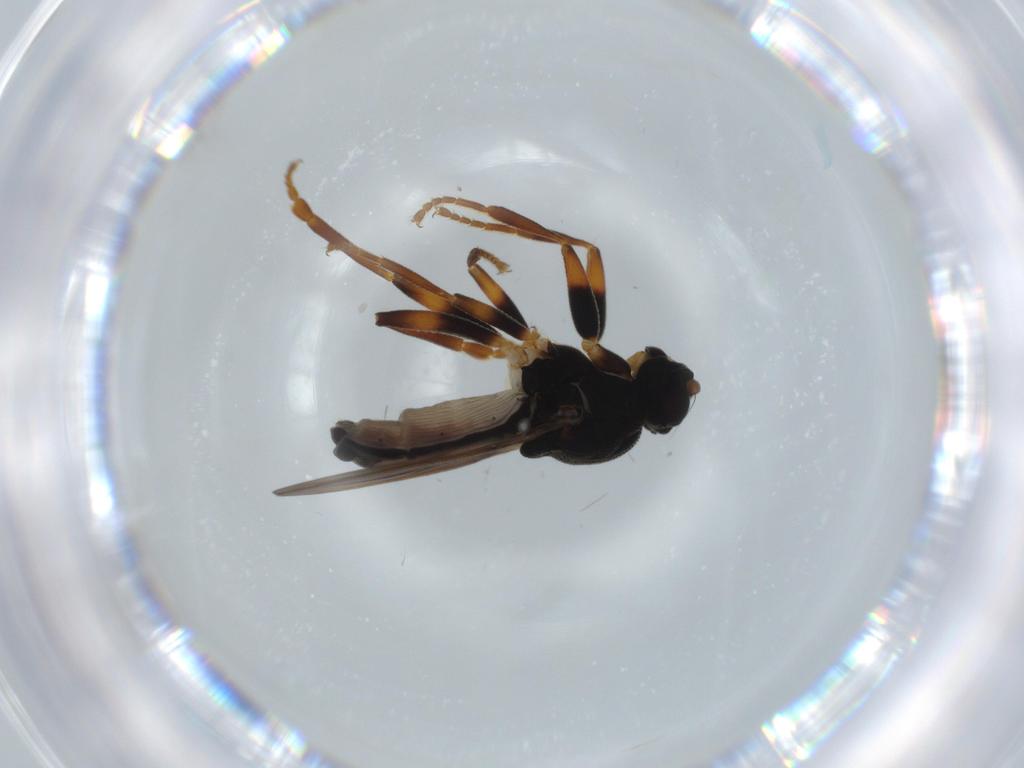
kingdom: Animalia
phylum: Arthropoda
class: Insecta
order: Diptera
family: Sphaeroceridae
